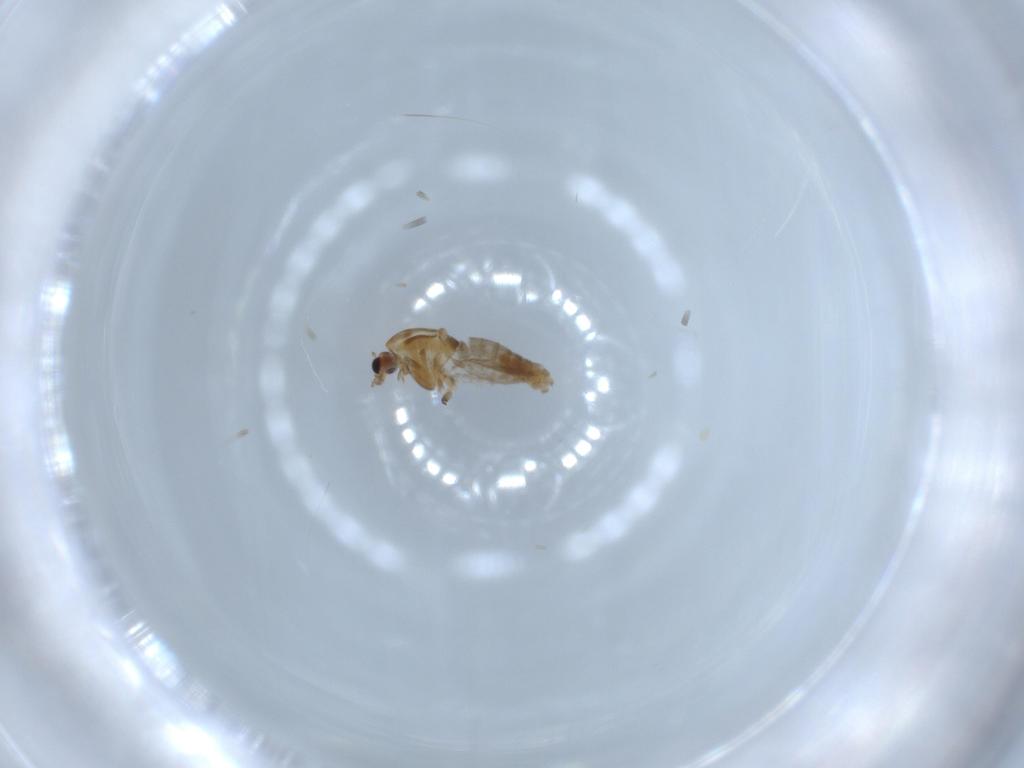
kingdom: Animalia
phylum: Arthropoda
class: Insecta
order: Diptera
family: Chironomidae
